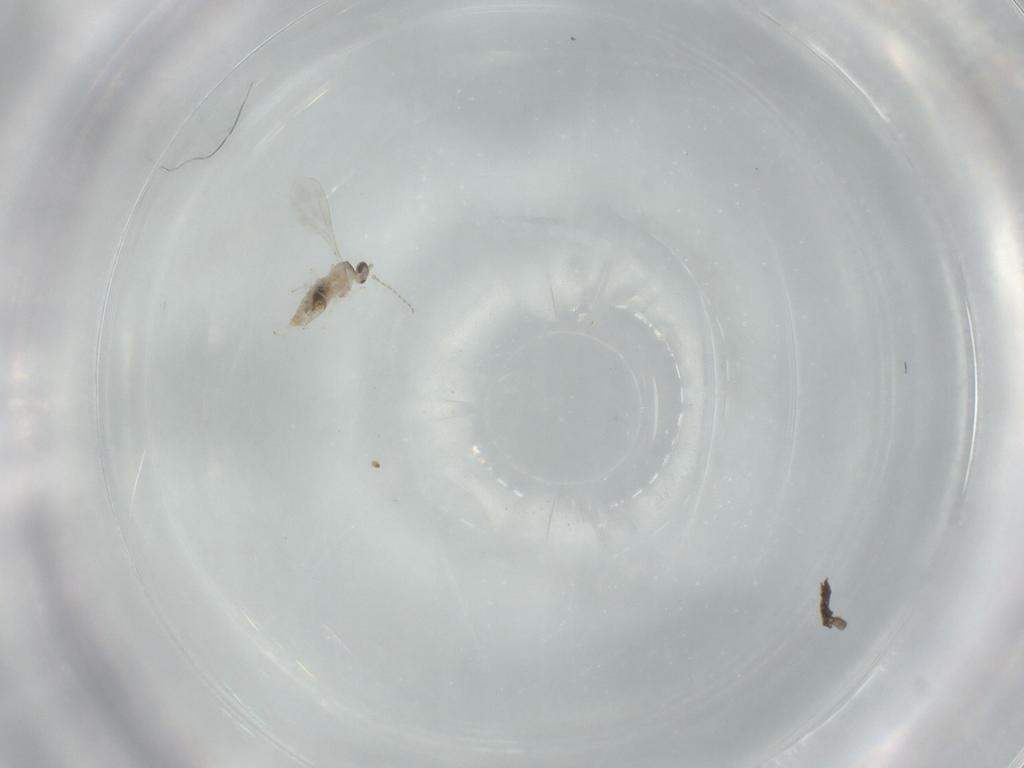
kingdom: Animalia
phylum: Arthropoda
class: Insecta
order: Diptera
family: Cecidomyiidae
